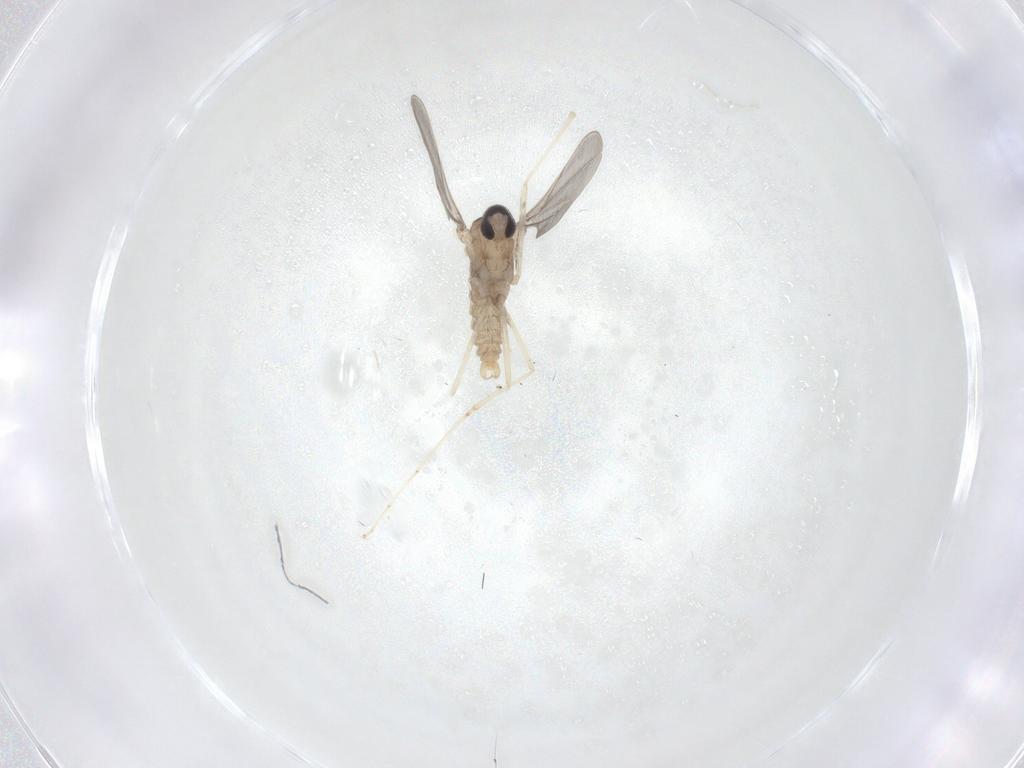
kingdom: Animalia
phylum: Arthropoda
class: Insecta
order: Diptera
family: Cecidomyiidae
